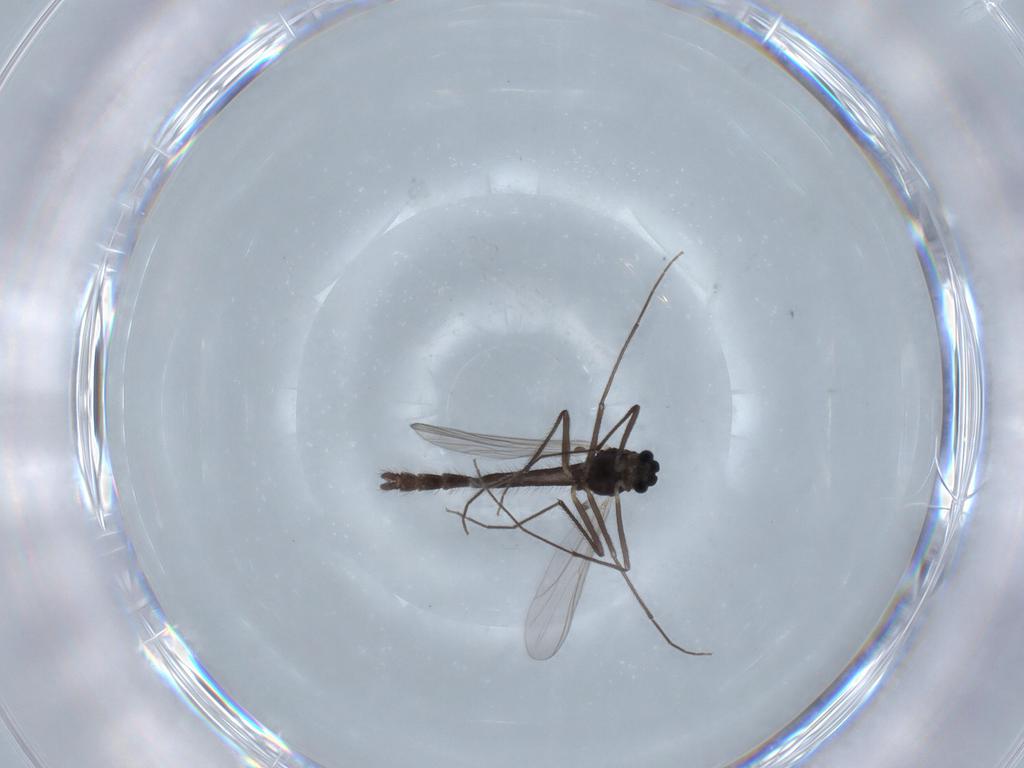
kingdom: Animalia
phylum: Arthropoda
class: Insecta
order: Diptera
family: Chironomidae
